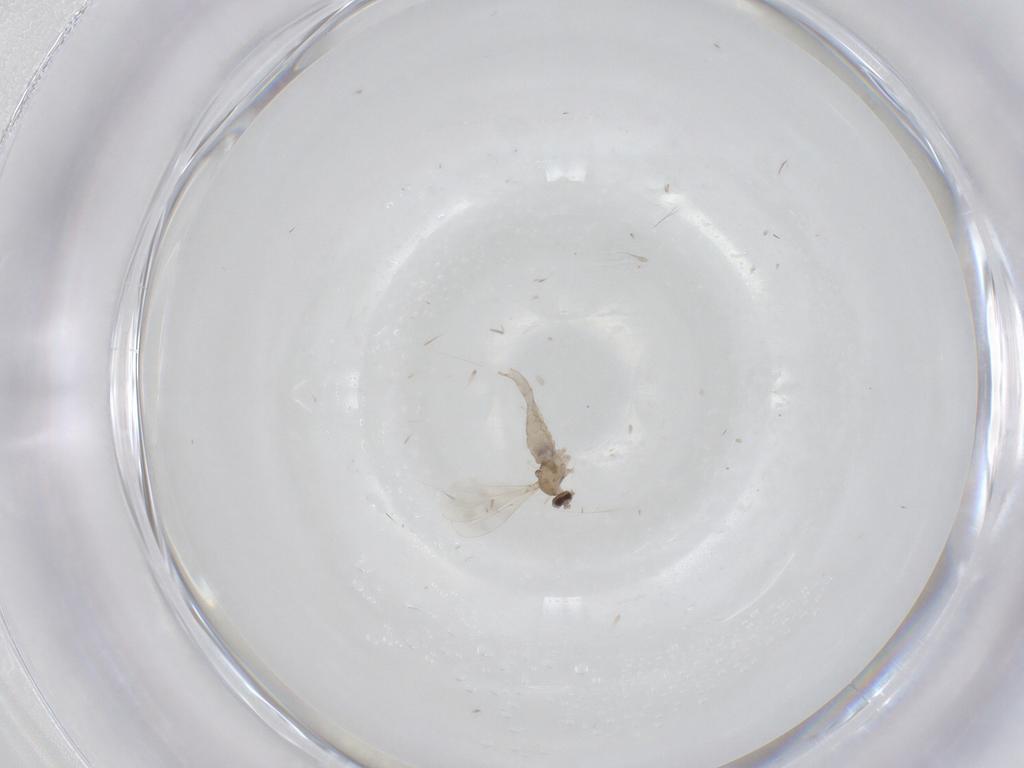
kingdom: Animalia
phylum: Arthropoda
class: Insecta
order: Diptera
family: Cecidomyiidae
